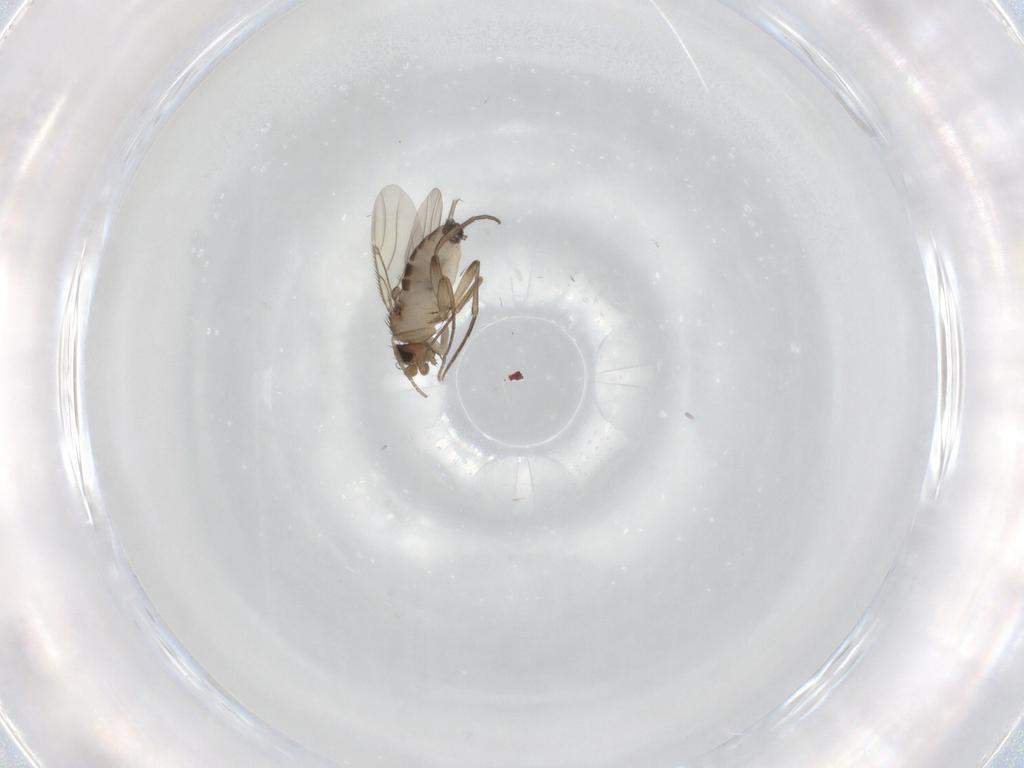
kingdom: Animalia
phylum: Arthropoda
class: Insecta
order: Diptera
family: Phoridae
